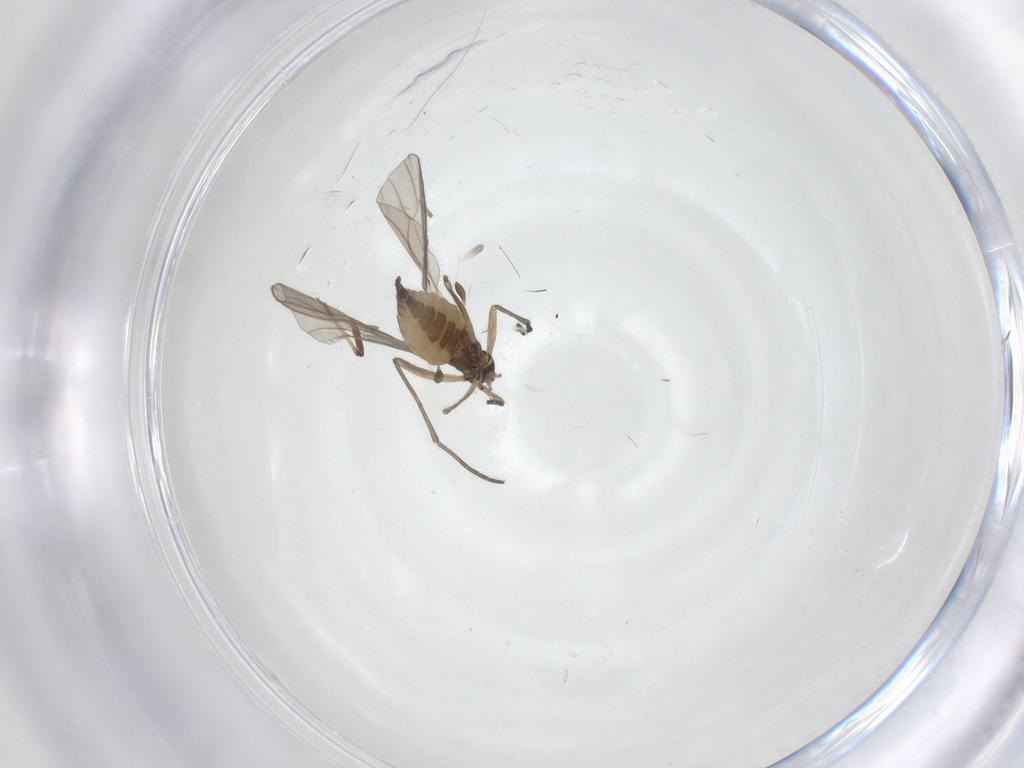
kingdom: Animalia
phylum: Arthropoda
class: Insecta
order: Diptera
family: Sciaridae
